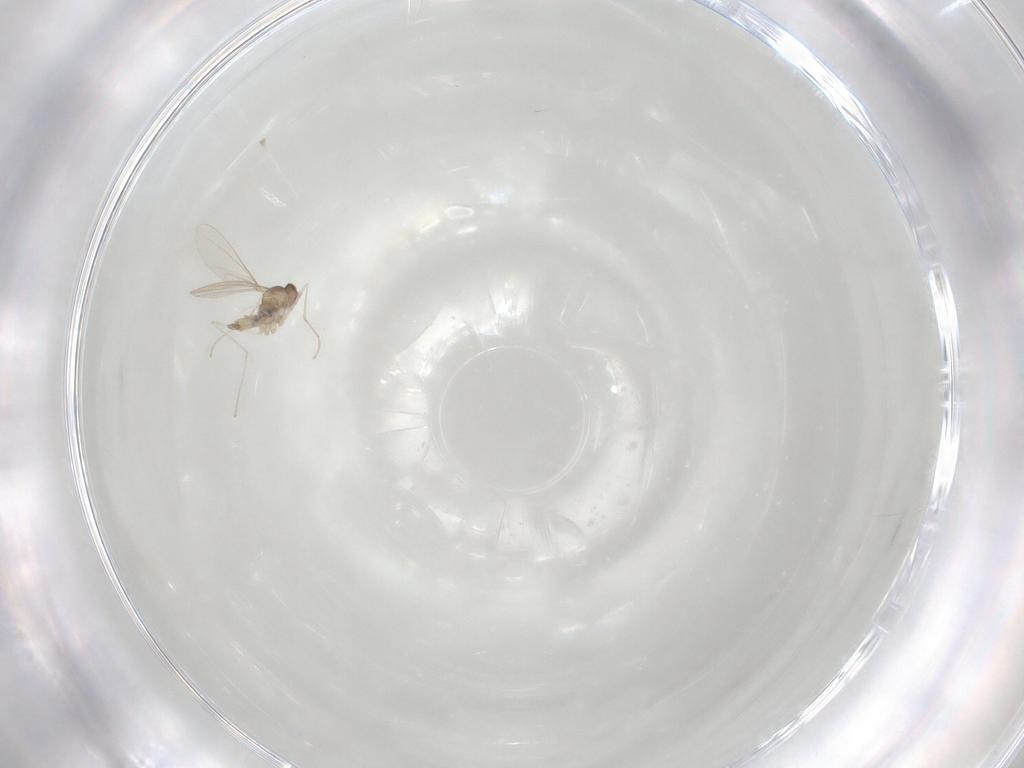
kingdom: Animalia
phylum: Arthropoda
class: Insecta
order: Diptera
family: Cecidomyiidae
